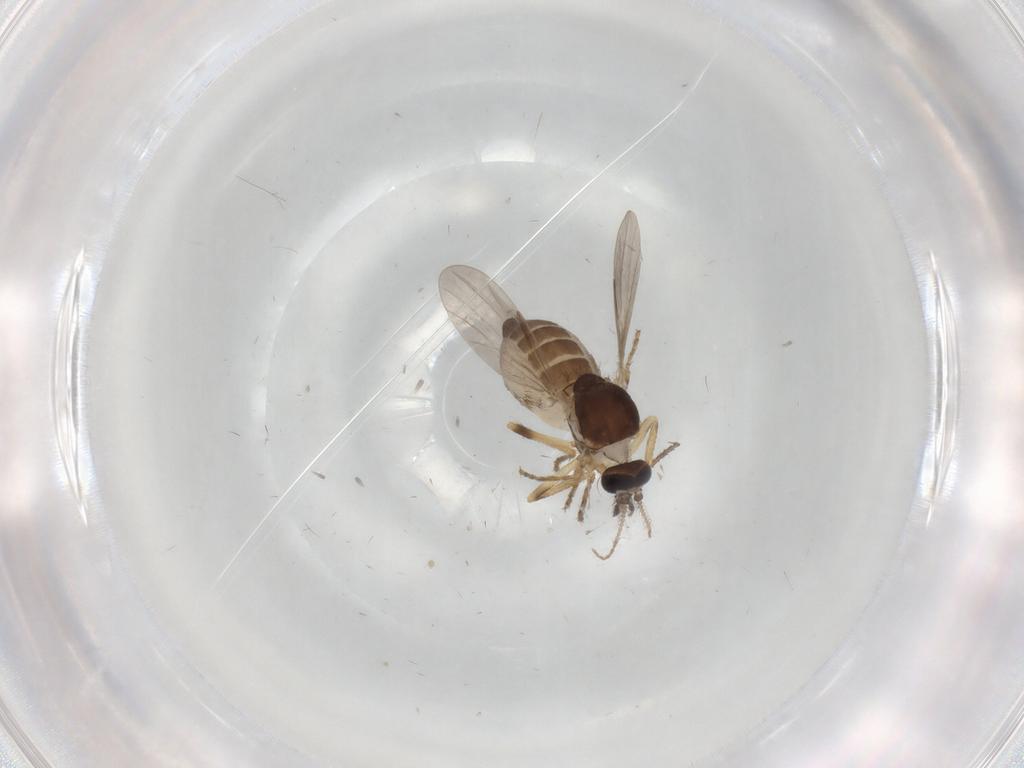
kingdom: Animalia
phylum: Arthropoda
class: Insecta
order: Diptera
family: Ceratopogonidae
